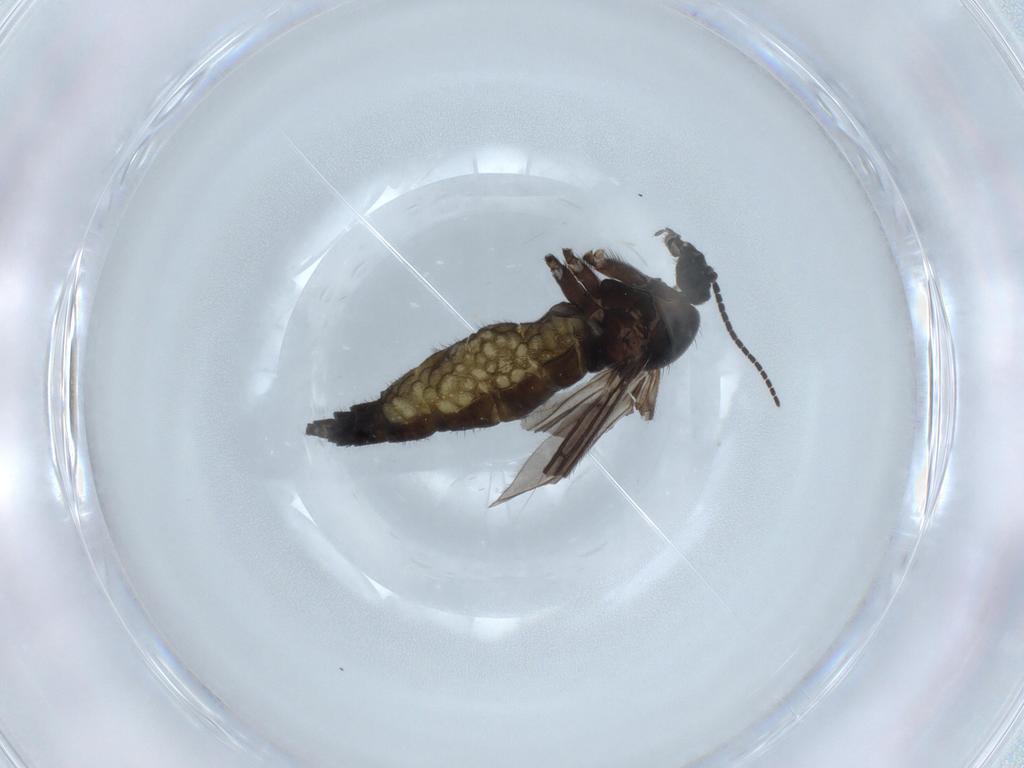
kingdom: Animalia
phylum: Arthropoda
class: Insecta
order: Diptera
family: Sciaridae
